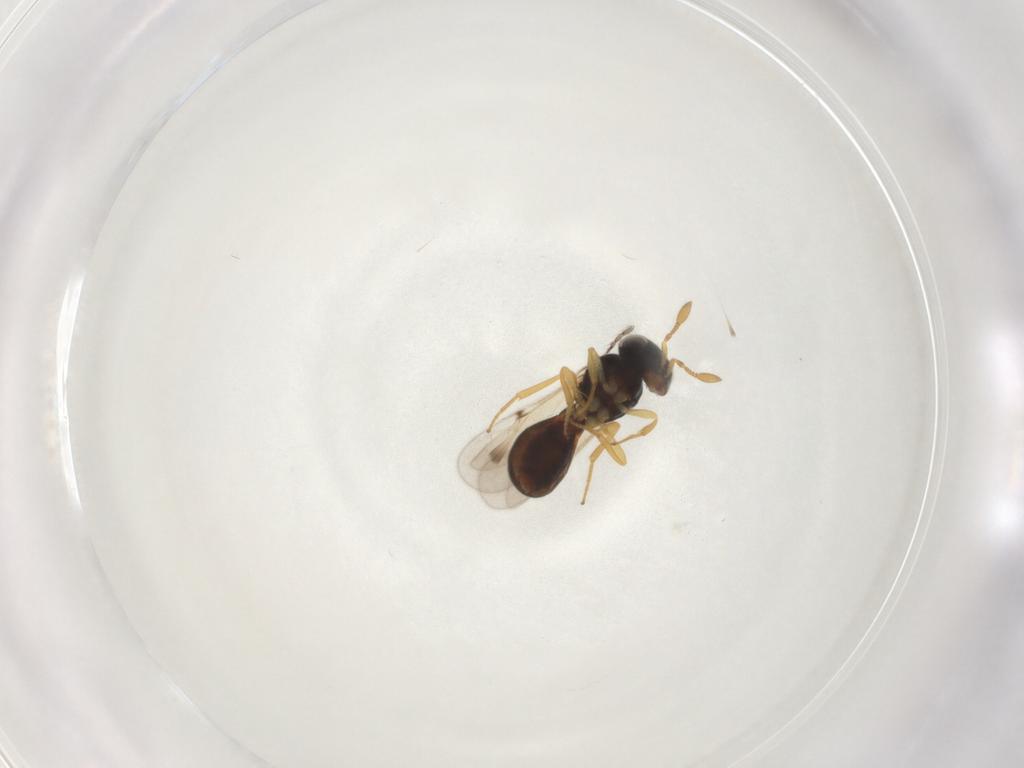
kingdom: Animalia
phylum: Arthropoda
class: Insecta
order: Hymenoptera
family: Scelionidae
